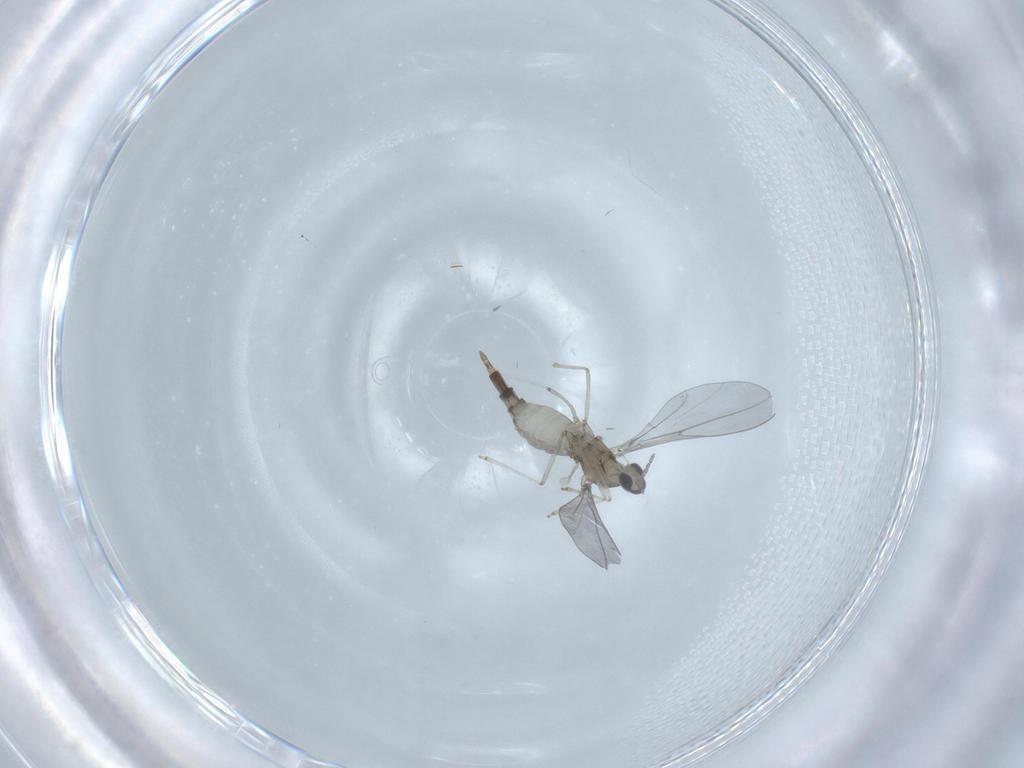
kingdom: Animalia
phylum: Arthropoda
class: Insecta
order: Diptera
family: Cecidomyiidae
